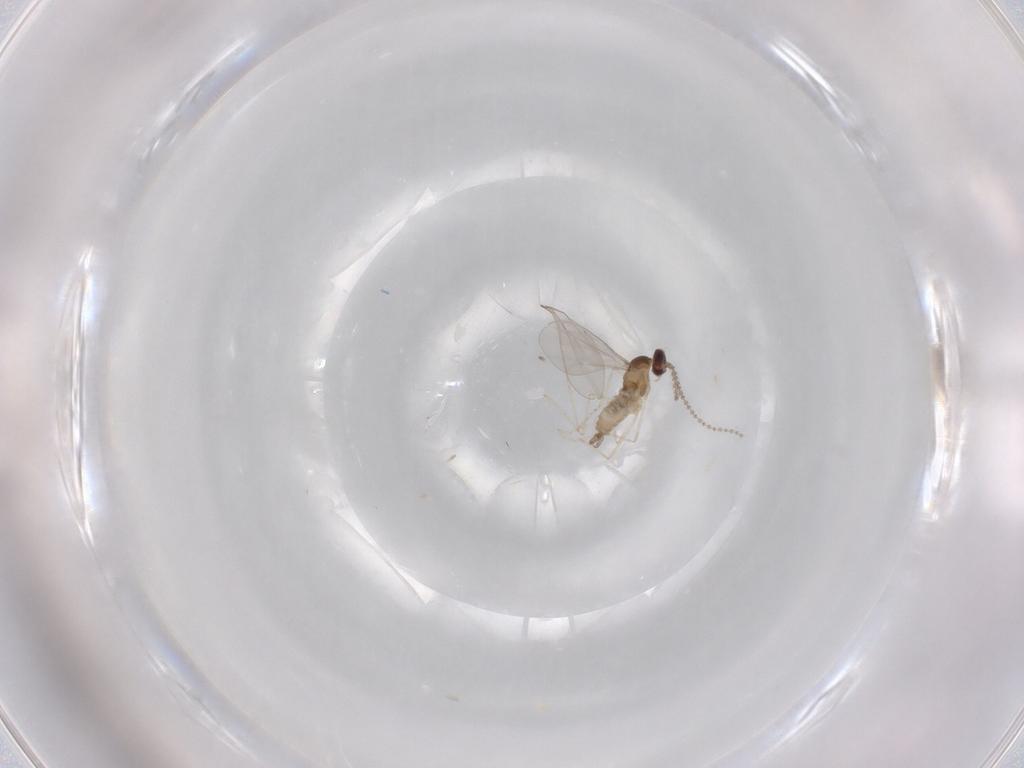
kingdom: Animalia
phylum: Arthropoda
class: Insecta
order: Diptera
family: Cecidomyiidae
